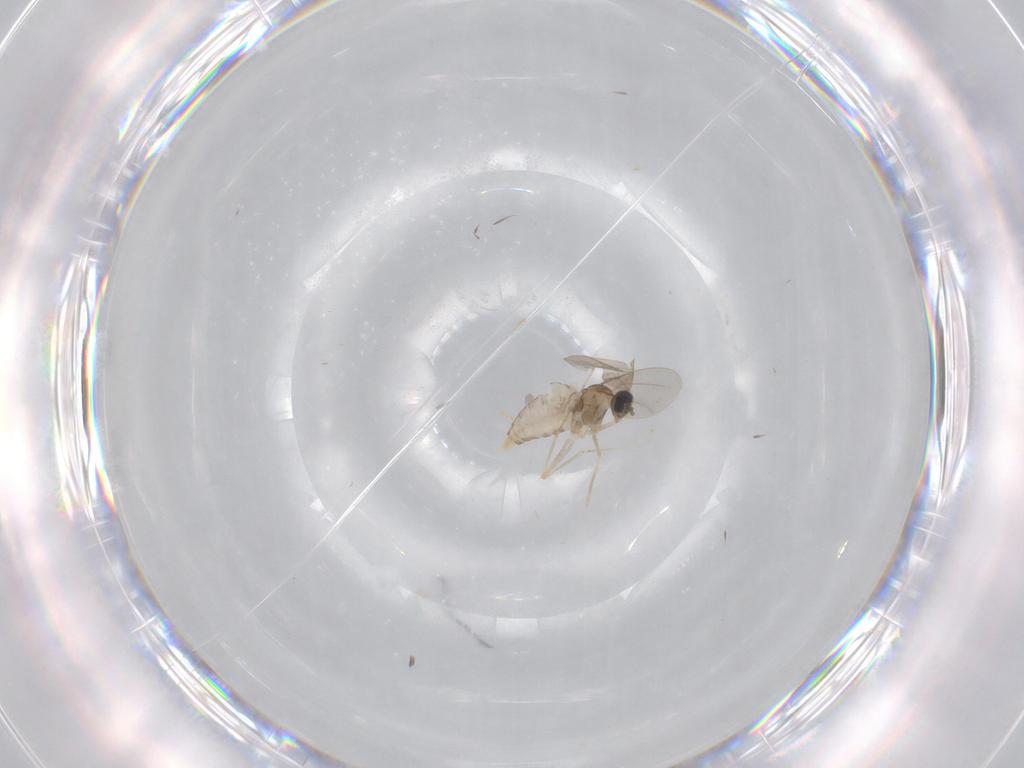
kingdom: Animalia
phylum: Arthropoda
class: Insecta
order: Diptera
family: Cecidomyiidae
